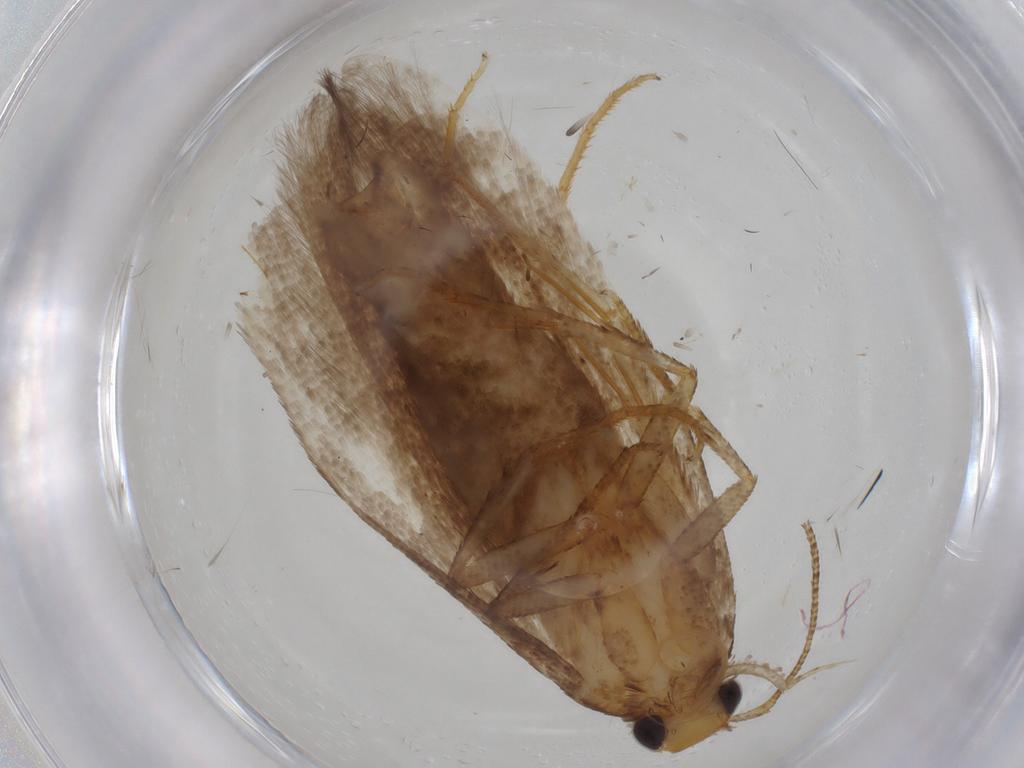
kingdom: Animalia
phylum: Arthropoda
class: Insecta
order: Lepidoptera
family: Gelechiidae
